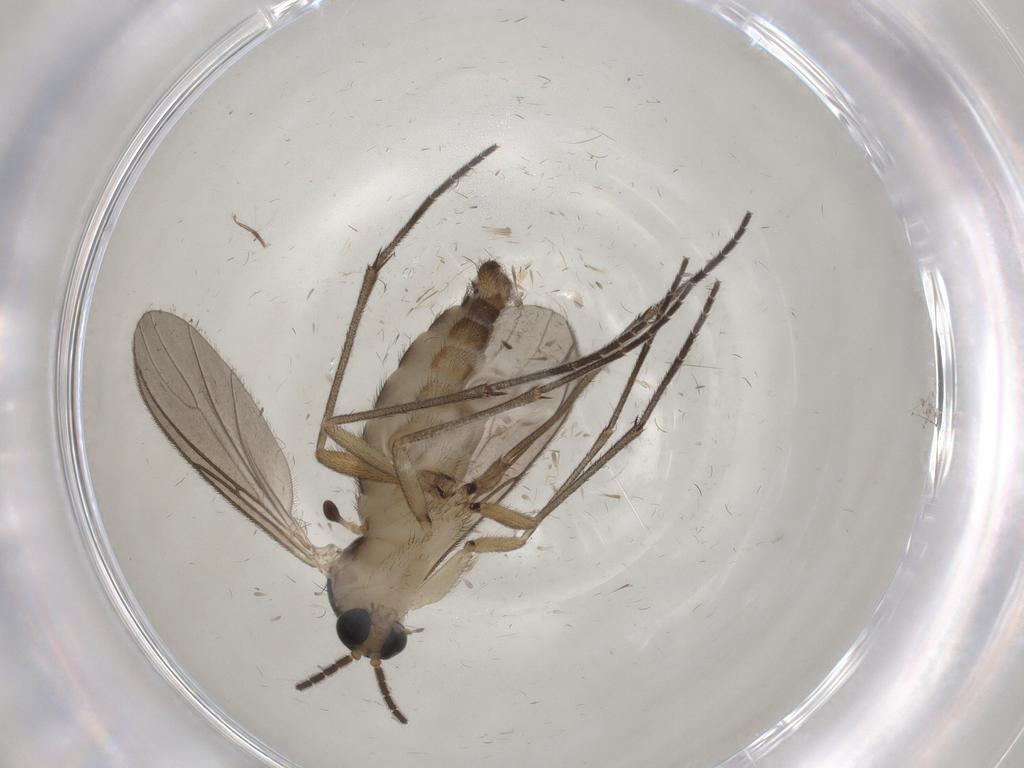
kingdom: Animalia
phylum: Arthropoda
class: Insecta
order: Diptera
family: Sciaridae
